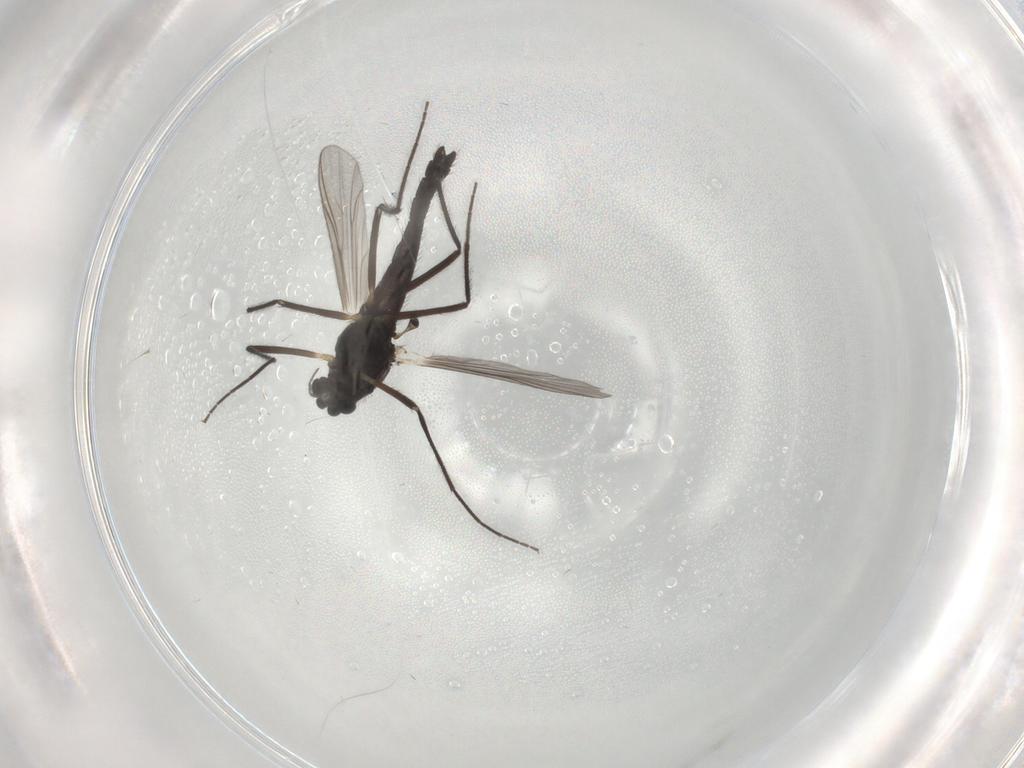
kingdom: Animalia
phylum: Arthropoda
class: Insecta
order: Diptera
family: Chironomidae
